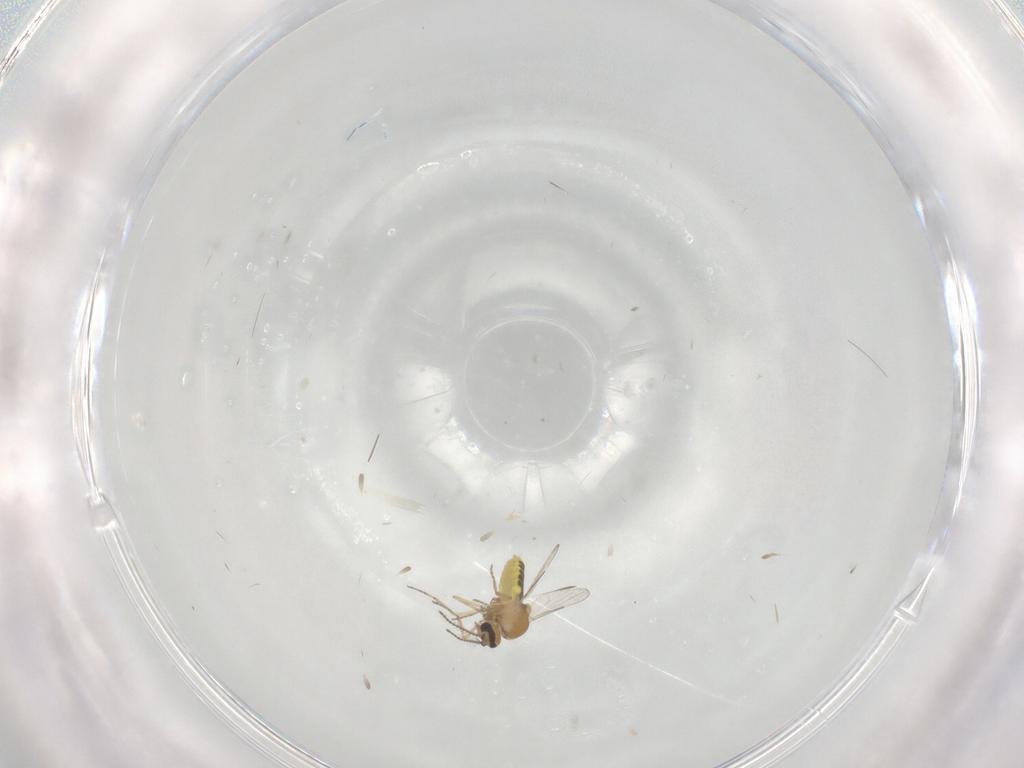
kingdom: Animalia
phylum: Arthropoda
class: Insecta
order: Diptera
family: Ceratopogonidae
